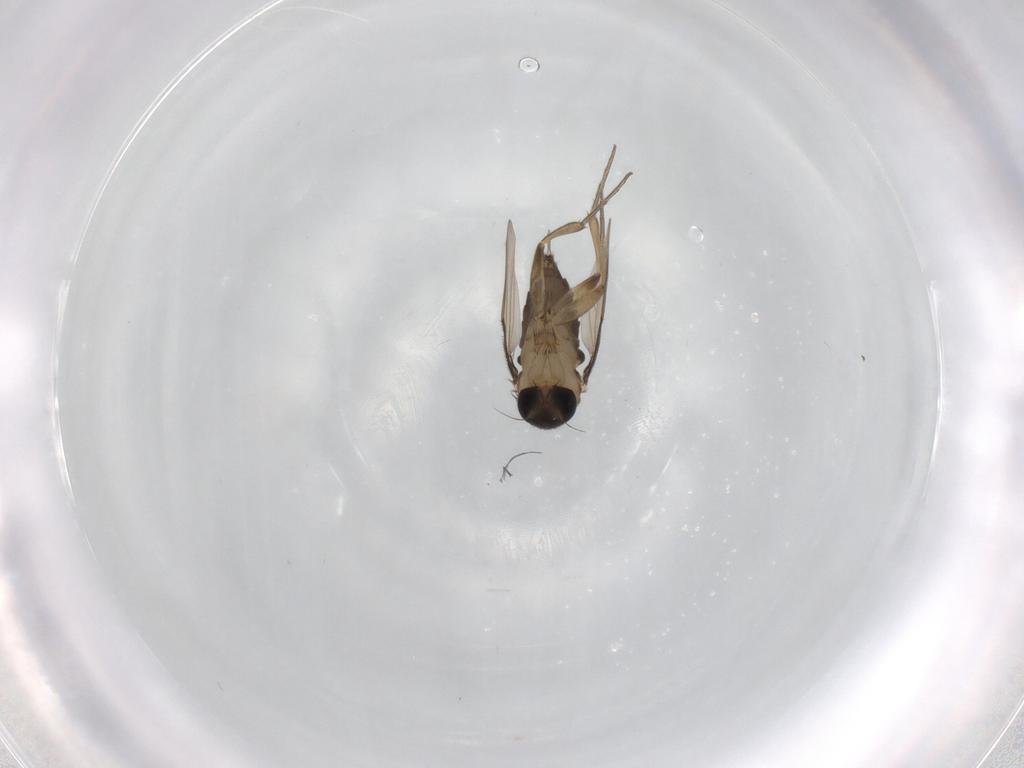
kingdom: Animalia
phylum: Arthropoda
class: Insecta
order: Diptera
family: Phoridae
